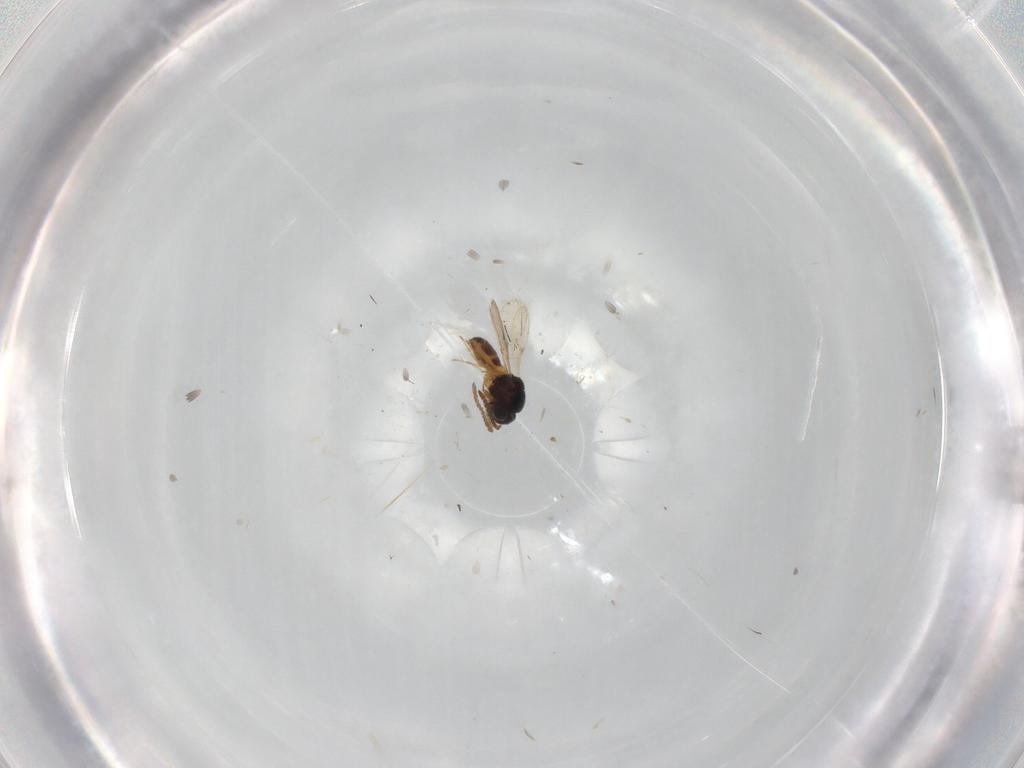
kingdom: Animalia
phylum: Arthropoda
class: Insecta
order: Hymenoptera
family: Scelionidae
